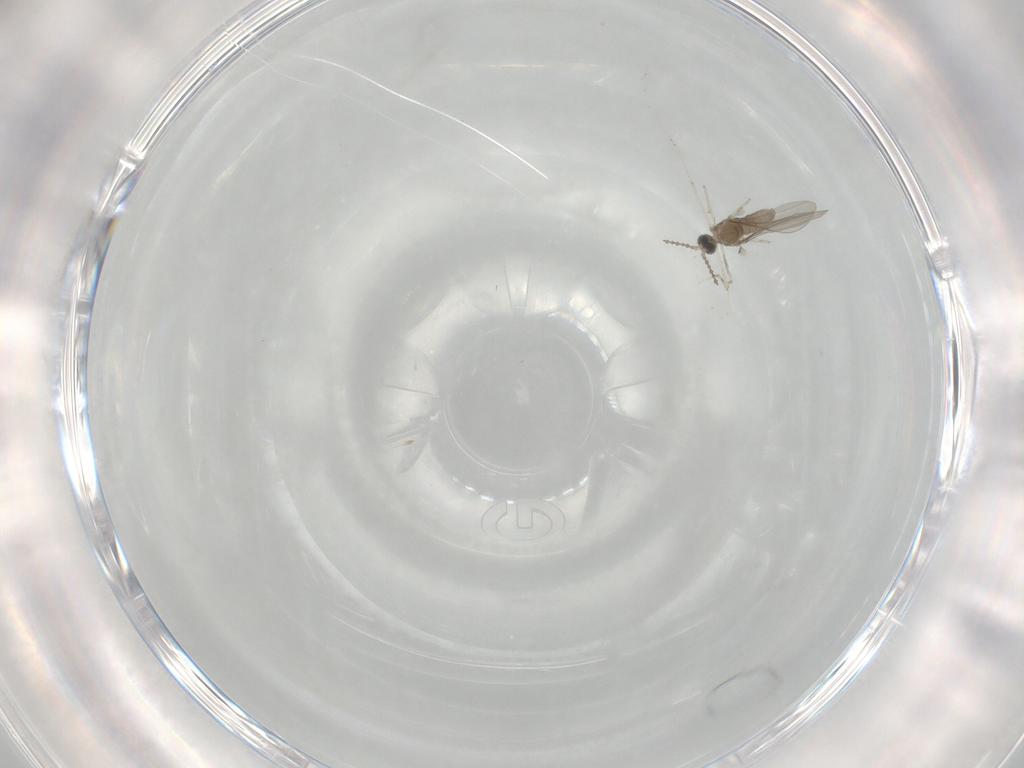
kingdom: Animalia
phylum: Arthropoda
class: Insecta
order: Diptera
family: Cecidomyiidae
